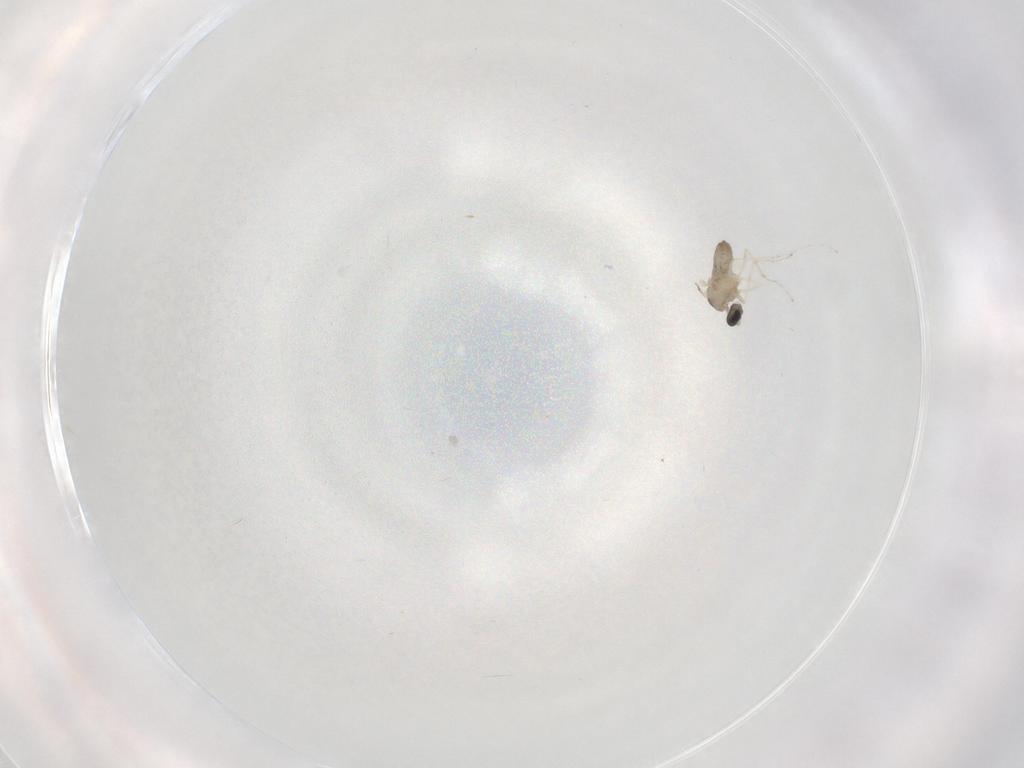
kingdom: Animalia
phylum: Arthropoda
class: Insecta
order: Diptera
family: Cecidomyiidae
